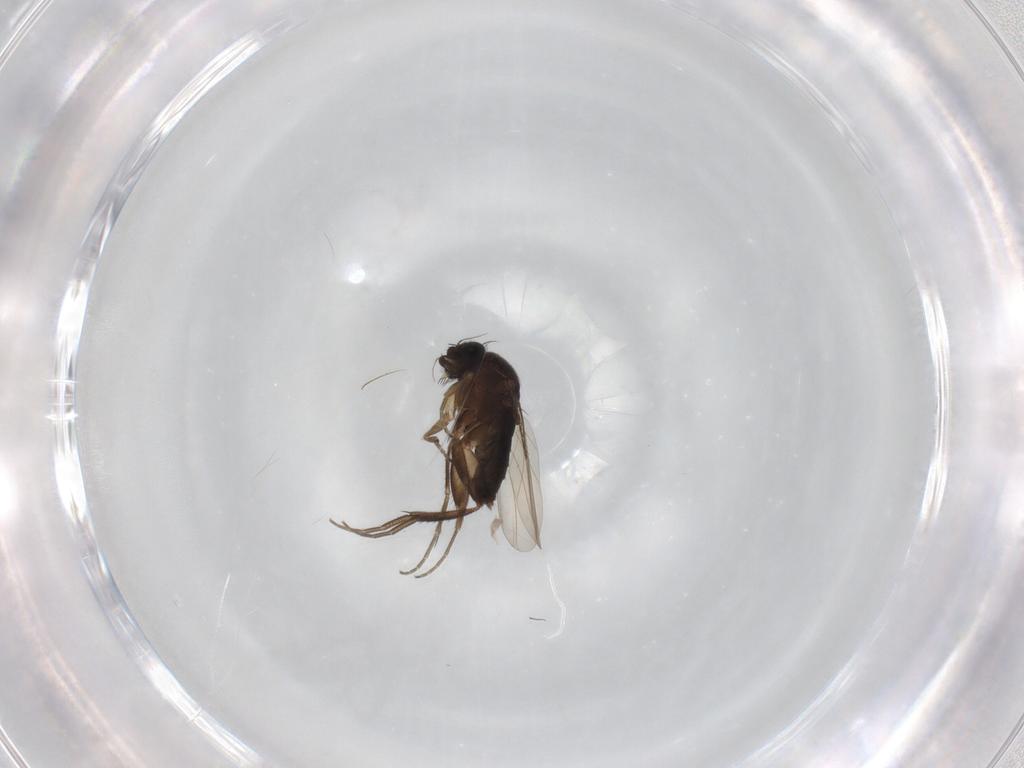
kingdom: Animalia
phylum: Arthropoda
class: Insecta
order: Diptera
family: Phoridae
